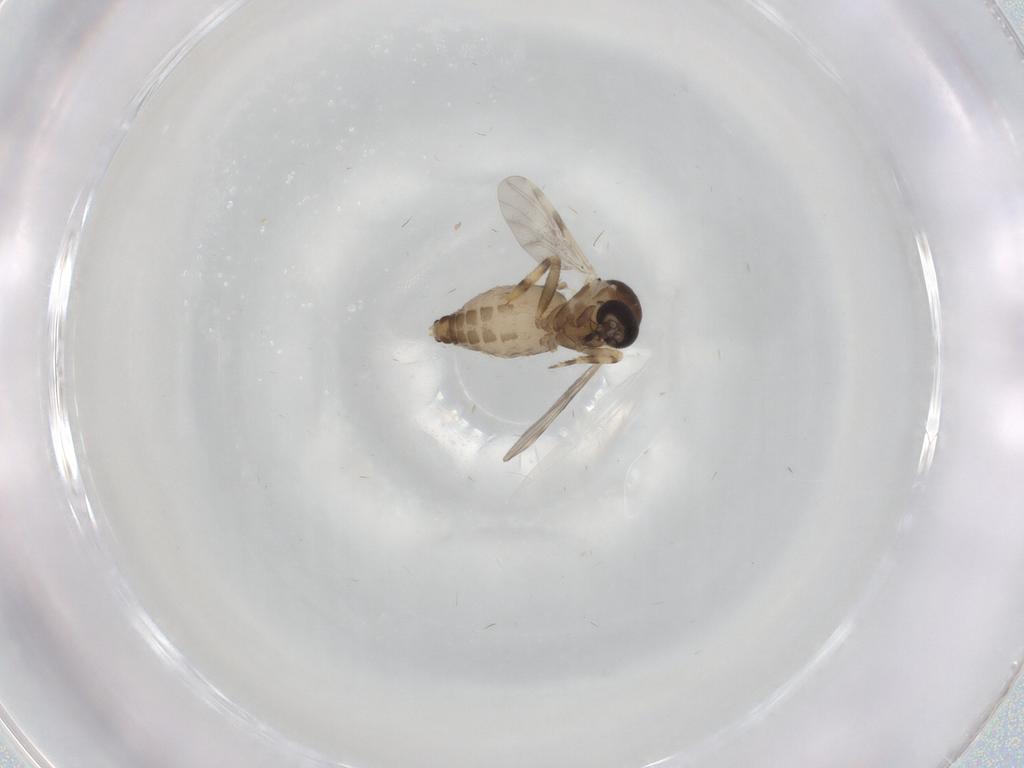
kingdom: Animalia
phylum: Arthropoda
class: Insecta
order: Diptera
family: Ceratopogonidae
